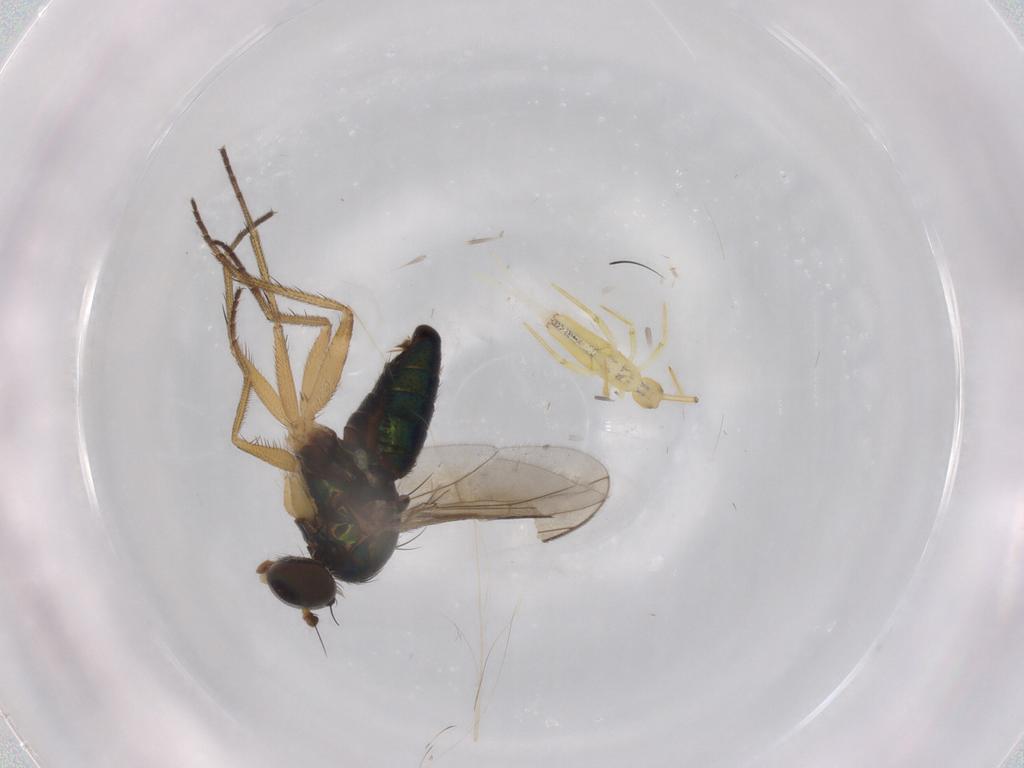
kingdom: Animalia
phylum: Arthropoda
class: Insecta
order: Diptera
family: Dolichopodidae
